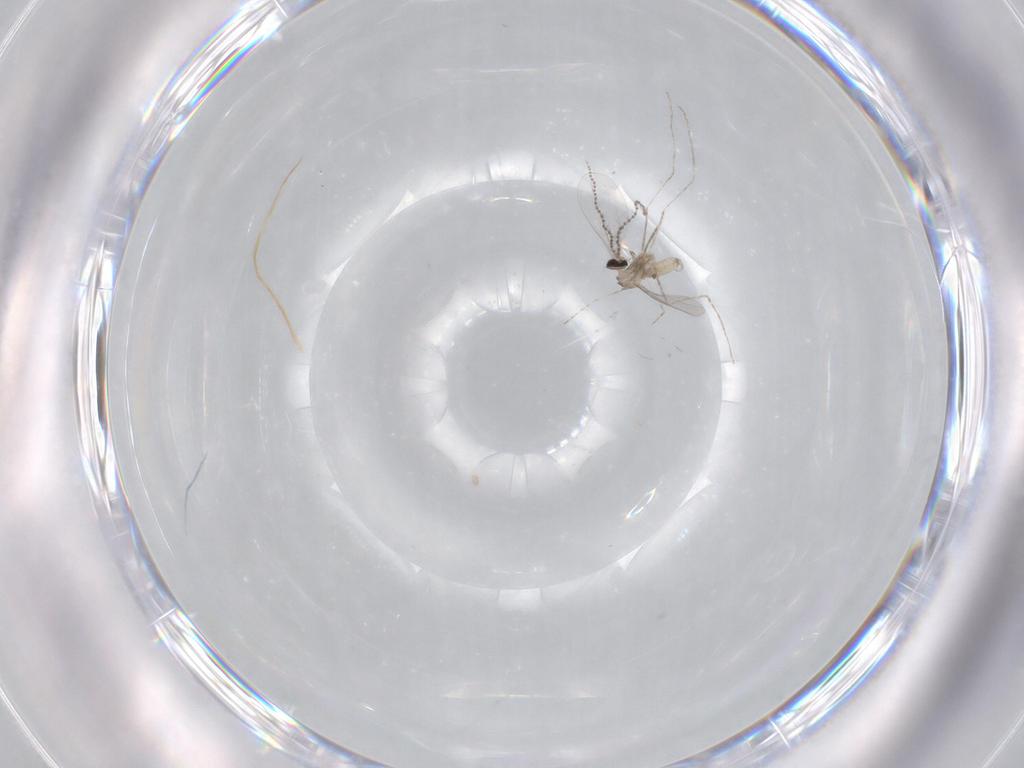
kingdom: Animalia
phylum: Arthropoda
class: Insecta
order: Diptera
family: Cecidomyiidae
